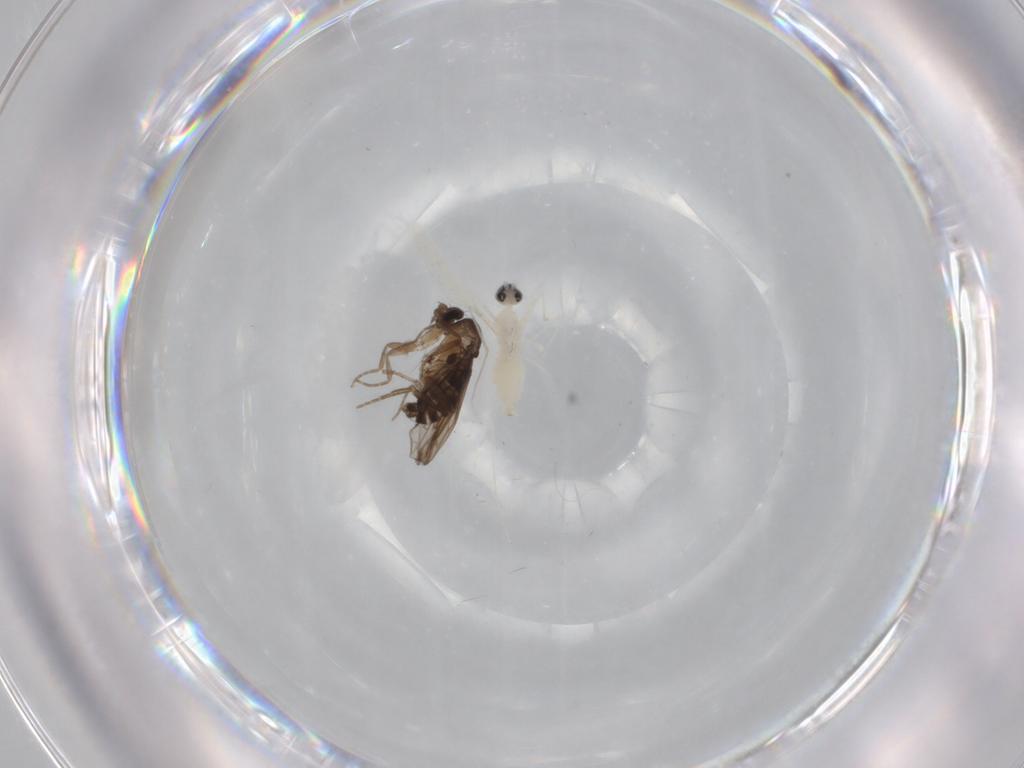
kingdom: Animalia
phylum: Arthropoda
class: Insecta
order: Diptera
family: Cecidomyiidae
